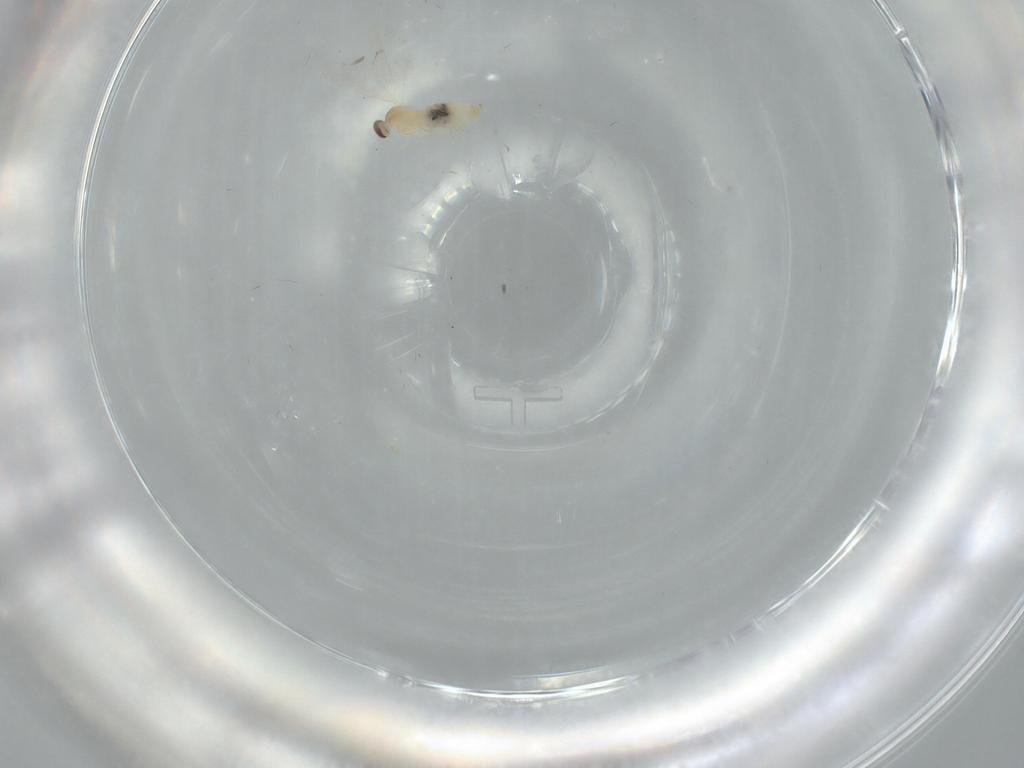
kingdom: Animalia
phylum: Arthropoda
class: Insecta
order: Diptera
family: Cecidomyiidae
